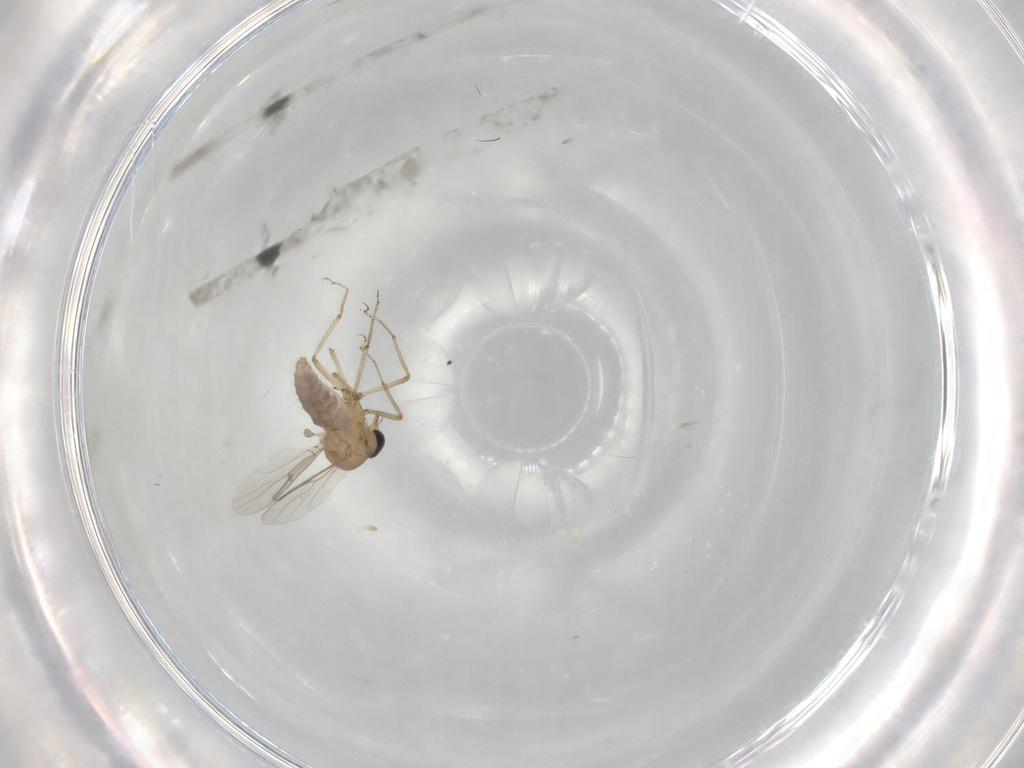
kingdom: Animalia
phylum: Arthropoda
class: Insecta
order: Diptera
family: Ceratopogonidae
